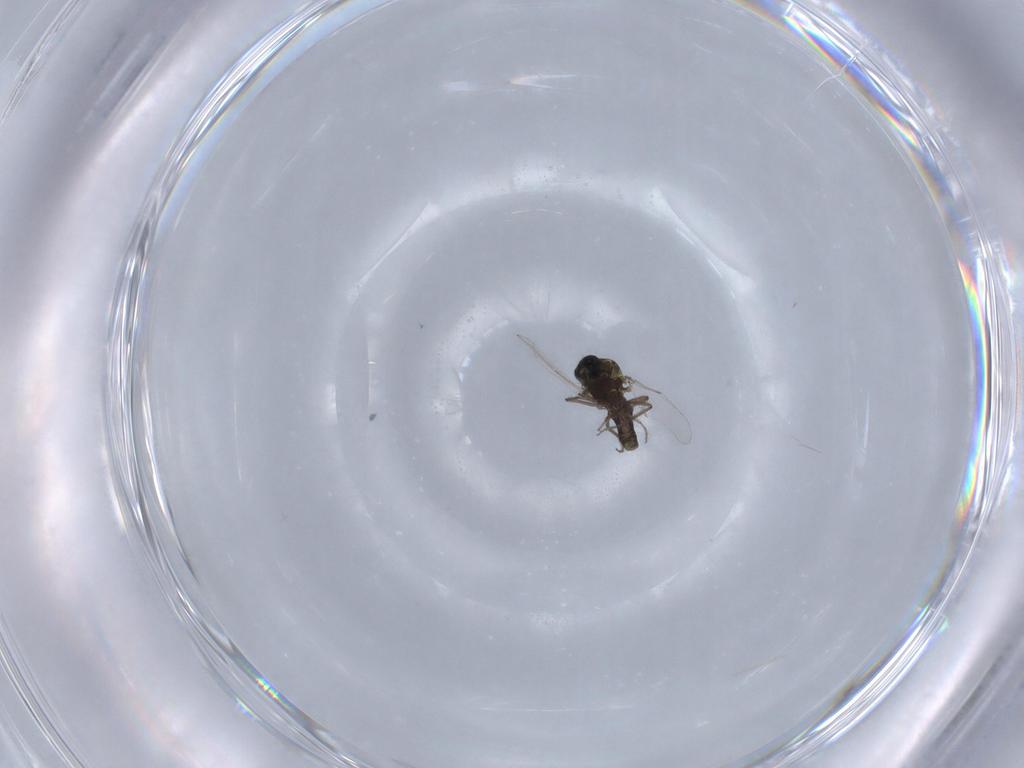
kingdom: Animalia
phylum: Arthropoda
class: Insecta
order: Diptera
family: Ceratopogonidae
